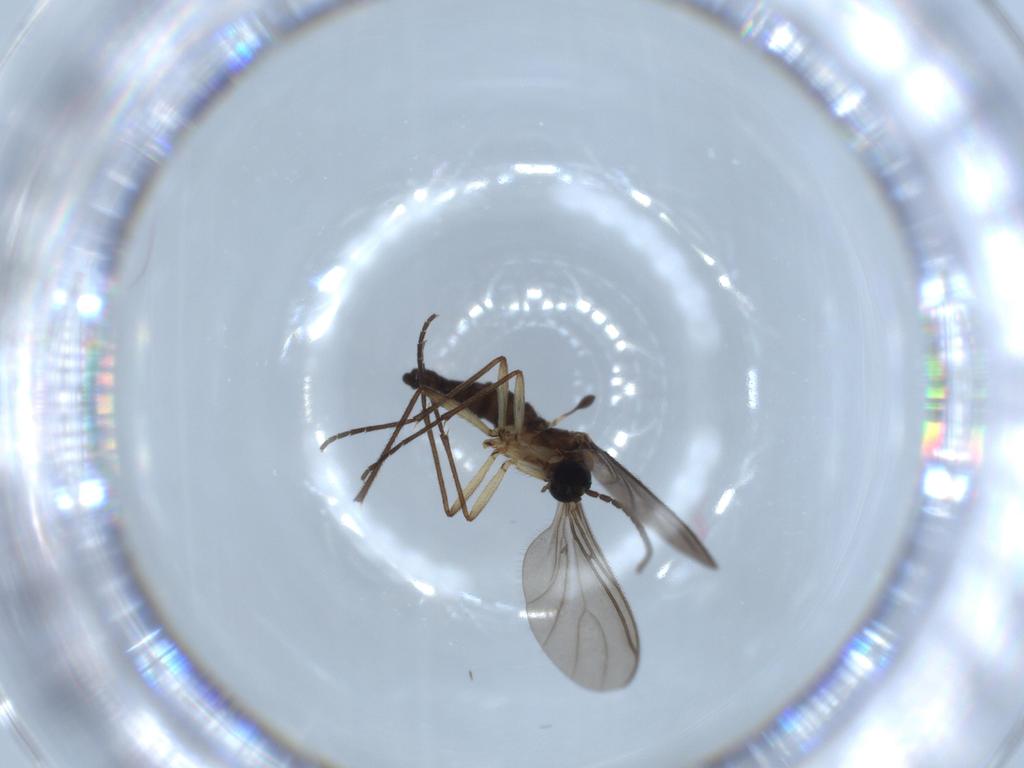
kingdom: Animalia
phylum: Arthropoda
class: Insecta
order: Diptera
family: Sciaridae
